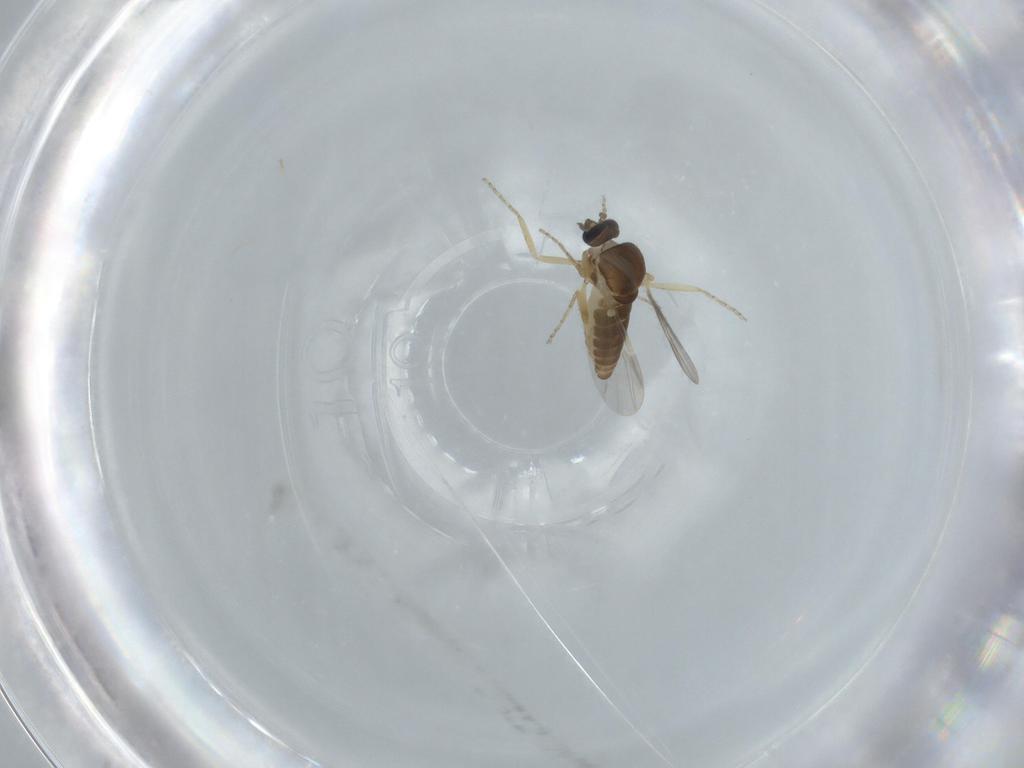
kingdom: Animalia
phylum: Arthropoda
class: Insecta
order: Diptera
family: Ceratopogonidae
